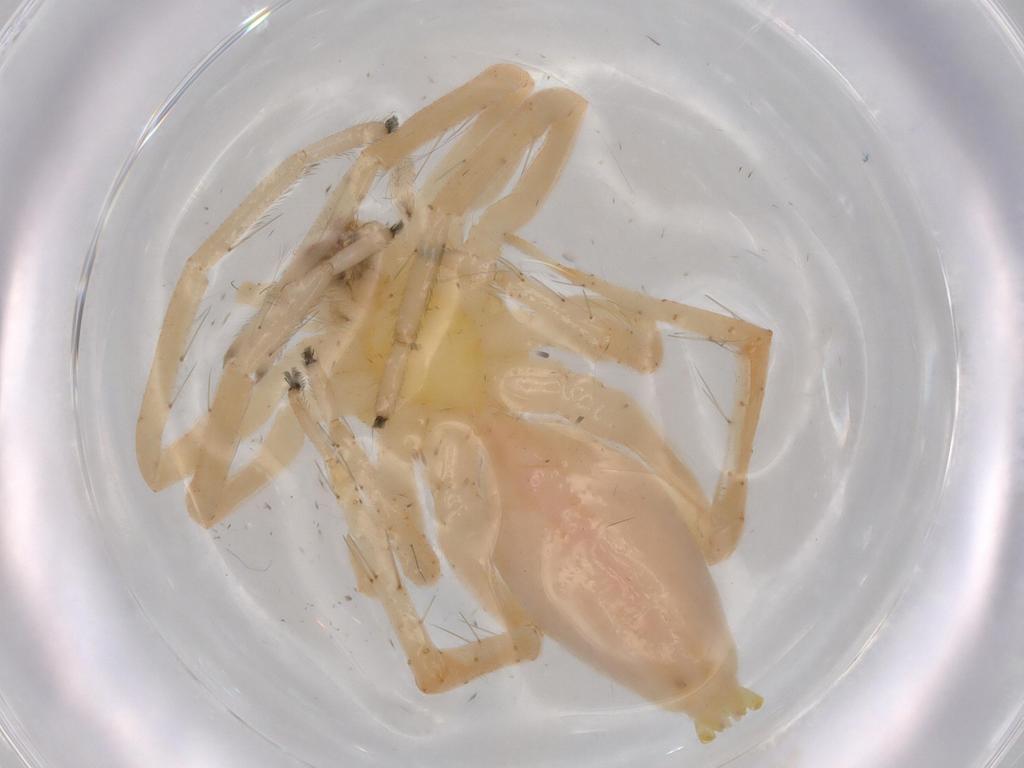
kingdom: Animalia
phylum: Arthropoda
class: Arachnida
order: Araneae
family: Anyphaenidae
